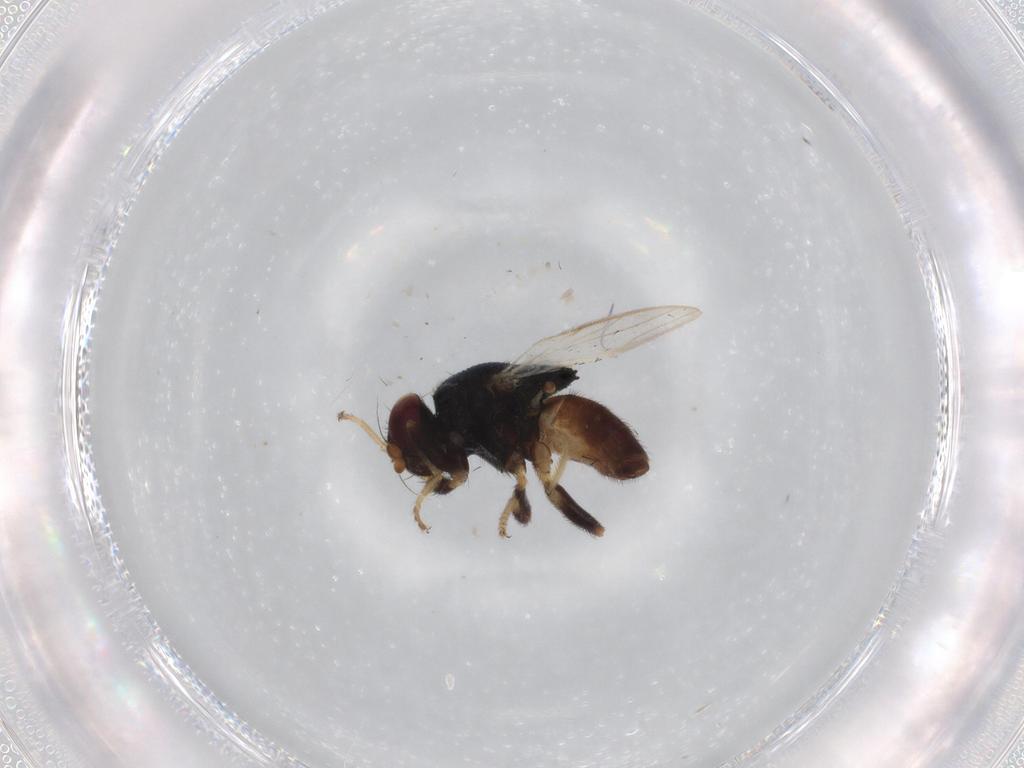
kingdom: Animalia
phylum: Arthropoda
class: Insecta
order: Diptera
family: Chloropidae
